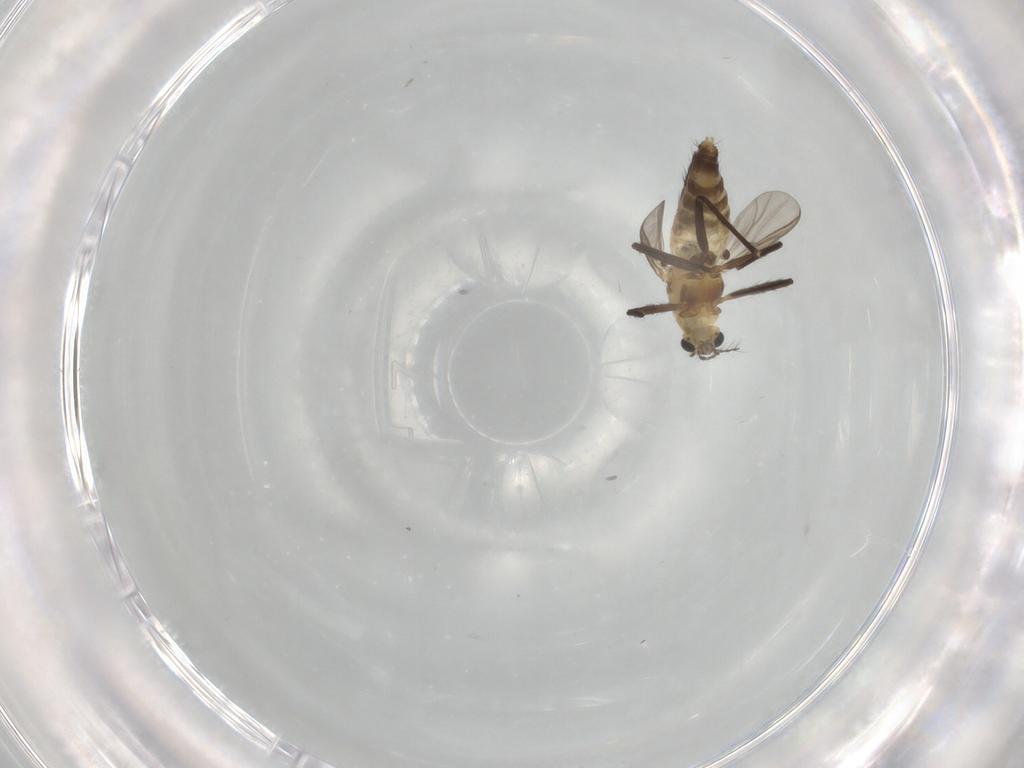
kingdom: Animalia
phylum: Arthropoda
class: Insecta
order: Diptera
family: Chironomidae
